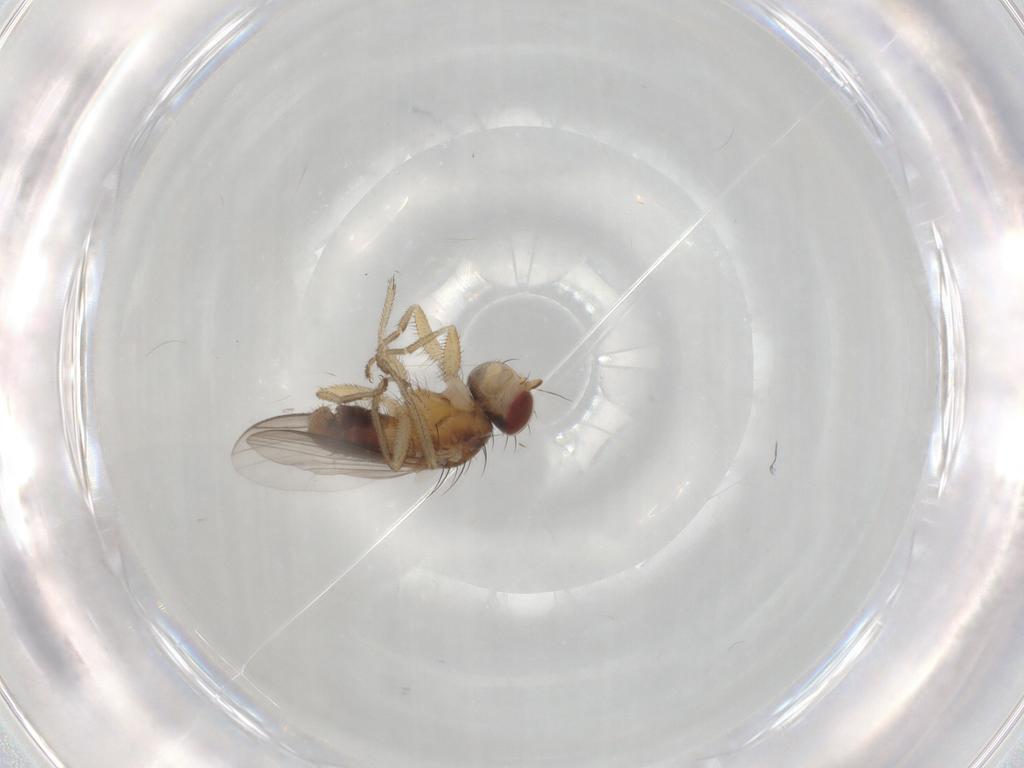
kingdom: Animalia
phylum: Arthropoda
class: Insecta
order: Diptera
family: Heleomyzidae
